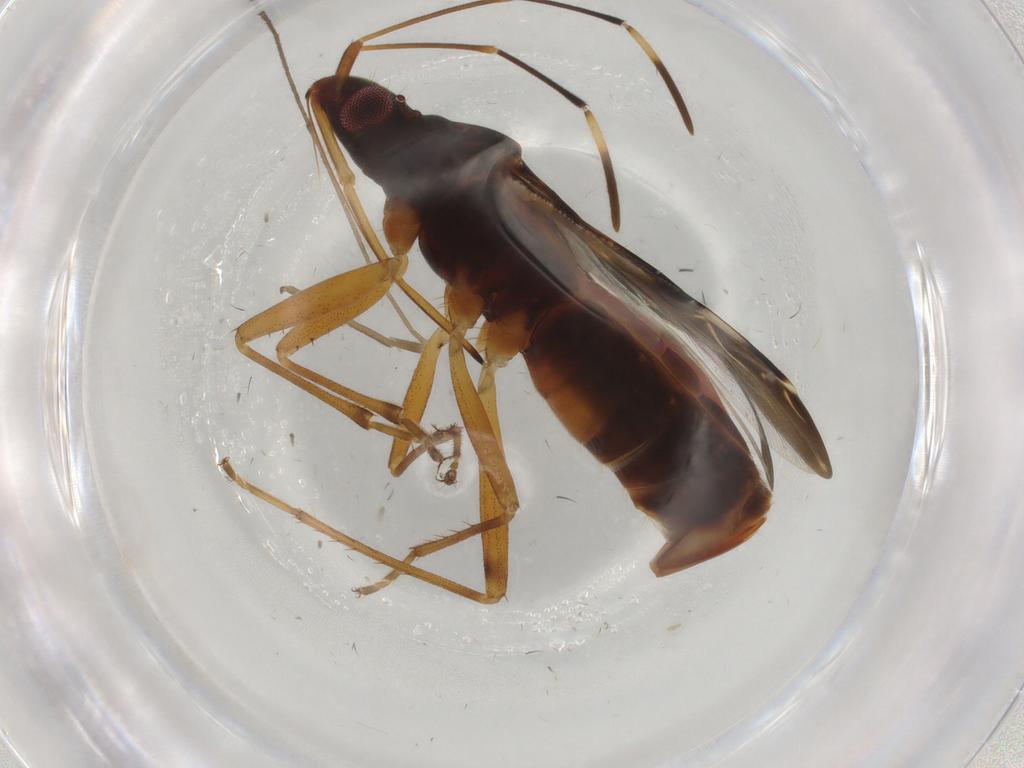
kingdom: Animalia
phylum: Arthropoda
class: Insecta
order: Hemiptera
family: Rhyparochromidae
